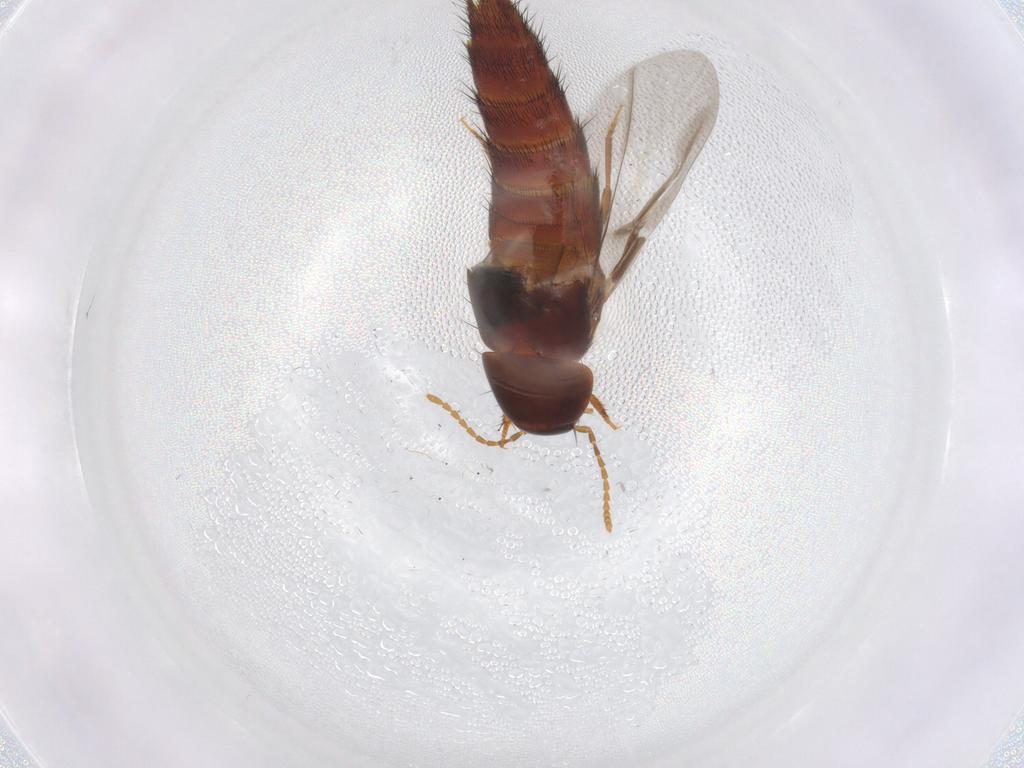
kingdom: Animalia
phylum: Arthropoda
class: Insecta
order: Coleoptera
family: Staphylinidae
